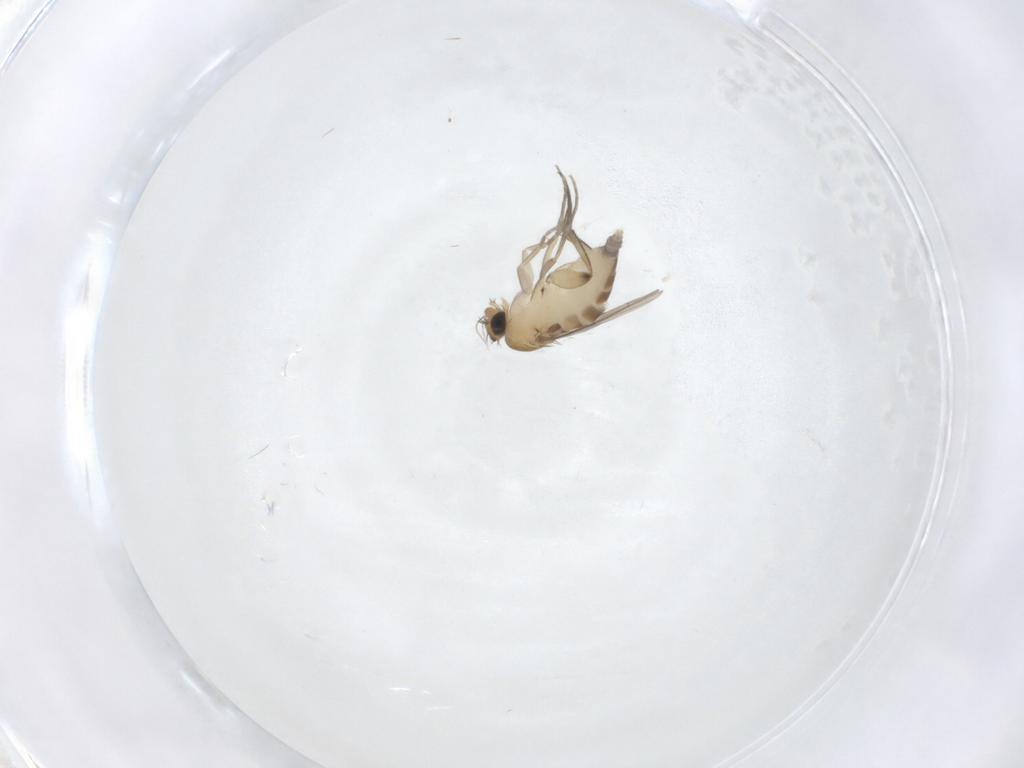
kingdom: Animalia
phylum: Arthropoda
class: Insecta
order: Diptera
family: Phoridae
